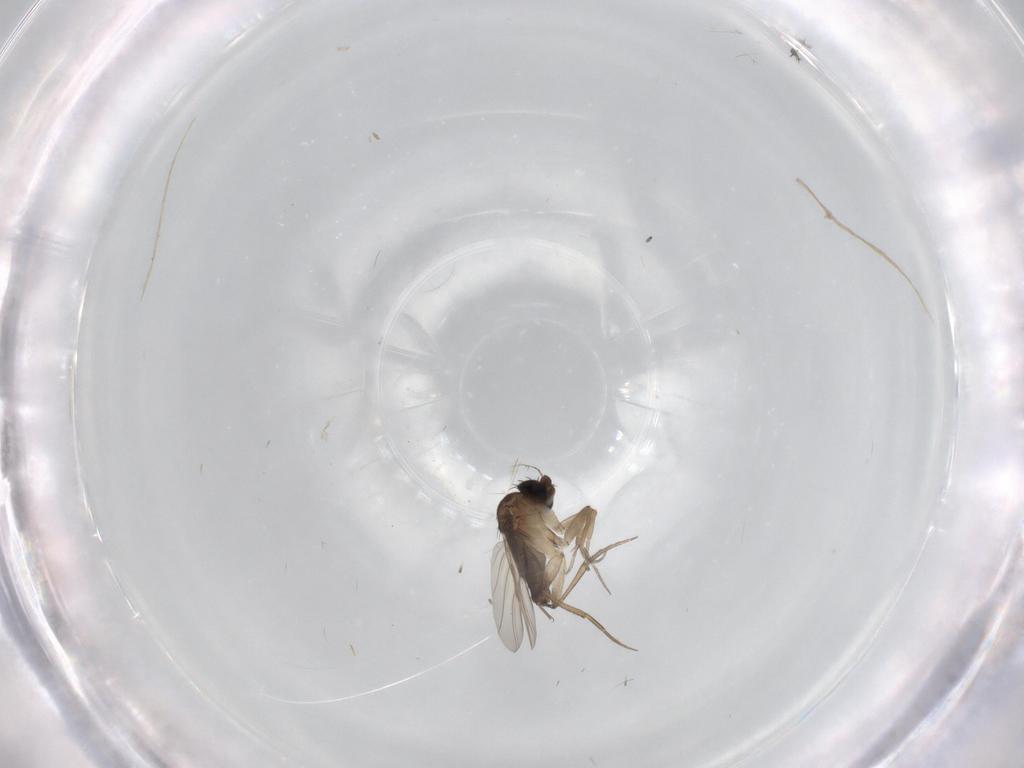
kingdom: Animalia
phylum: Arthropoda
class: Insecta
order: Diptera
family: Phoridae
